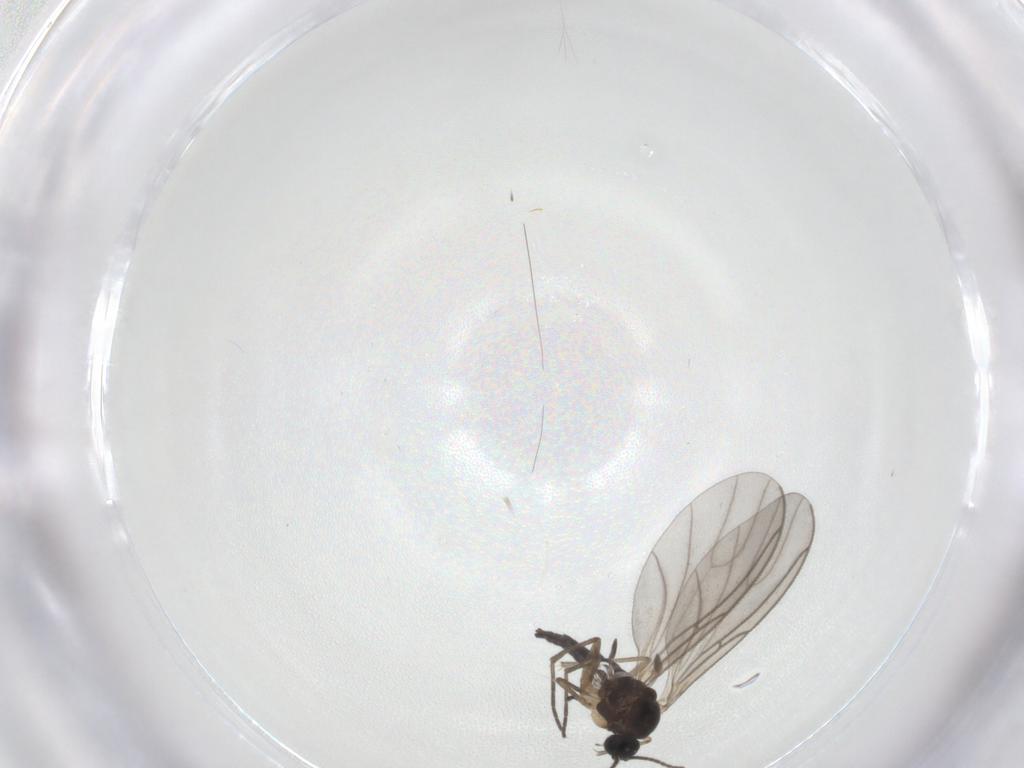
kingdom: Animalia
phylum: Arthropoda
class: Insecta
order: Diptera
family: Sciaridae
